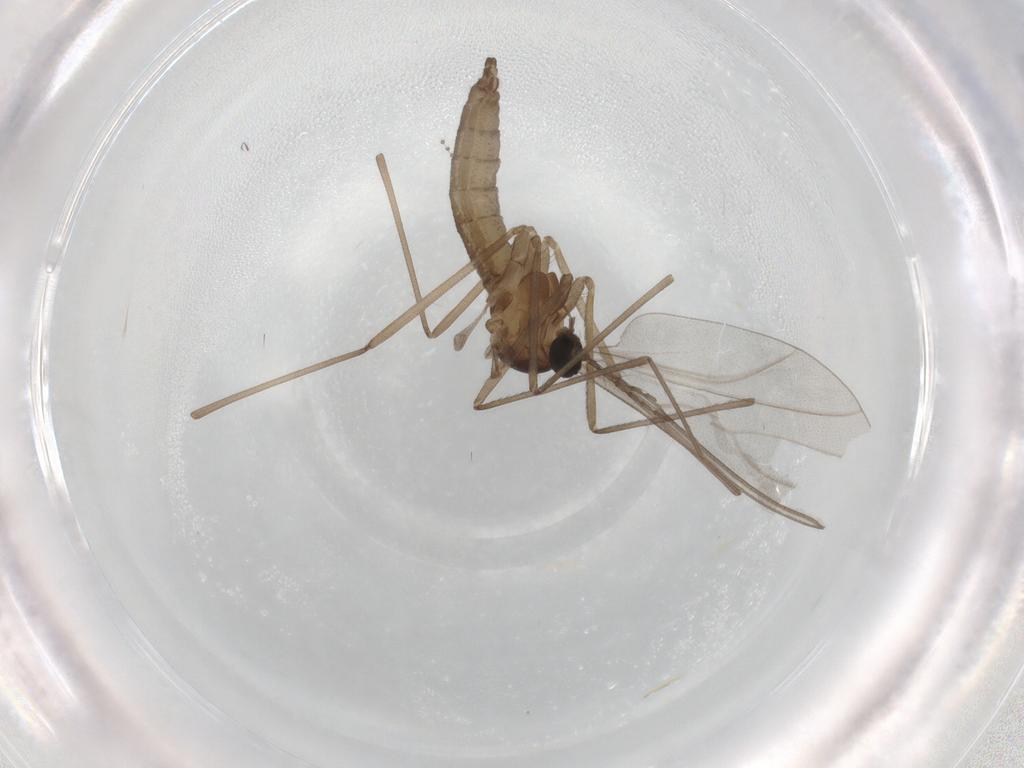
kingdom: Animalia
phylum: Arthropoda
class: Insecta
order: Diptera
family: Cecidomyiidae
